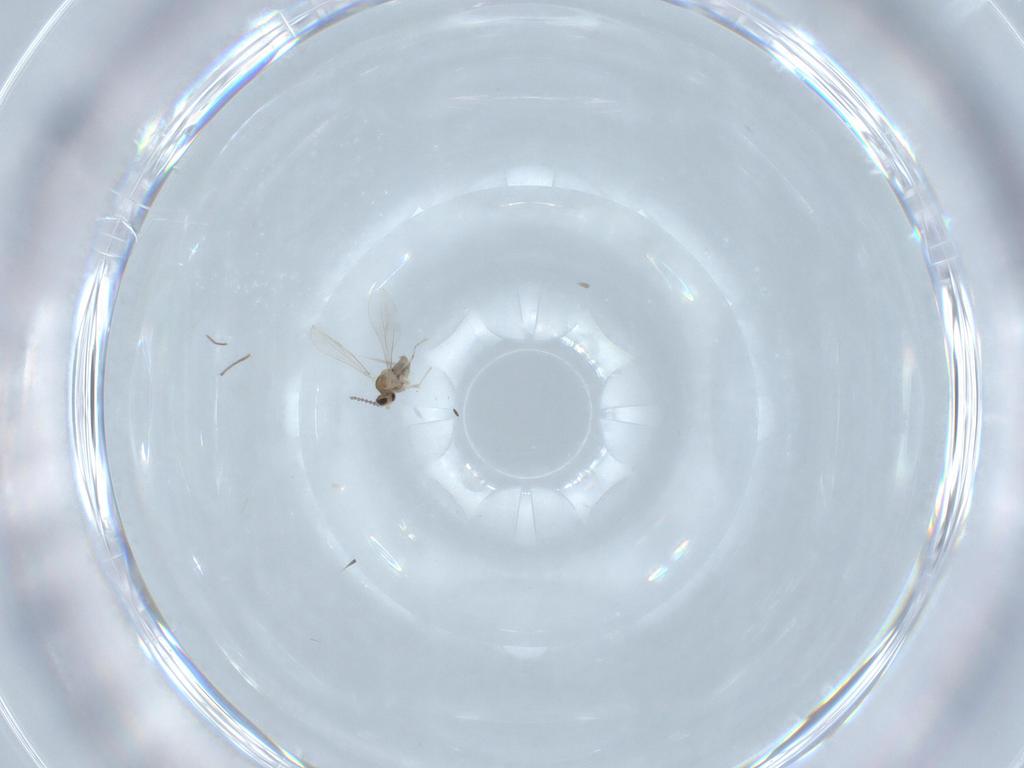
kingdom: Animalia
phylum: Arthropoda
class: Insecta
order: Diptera
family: Cecidomyiidae
